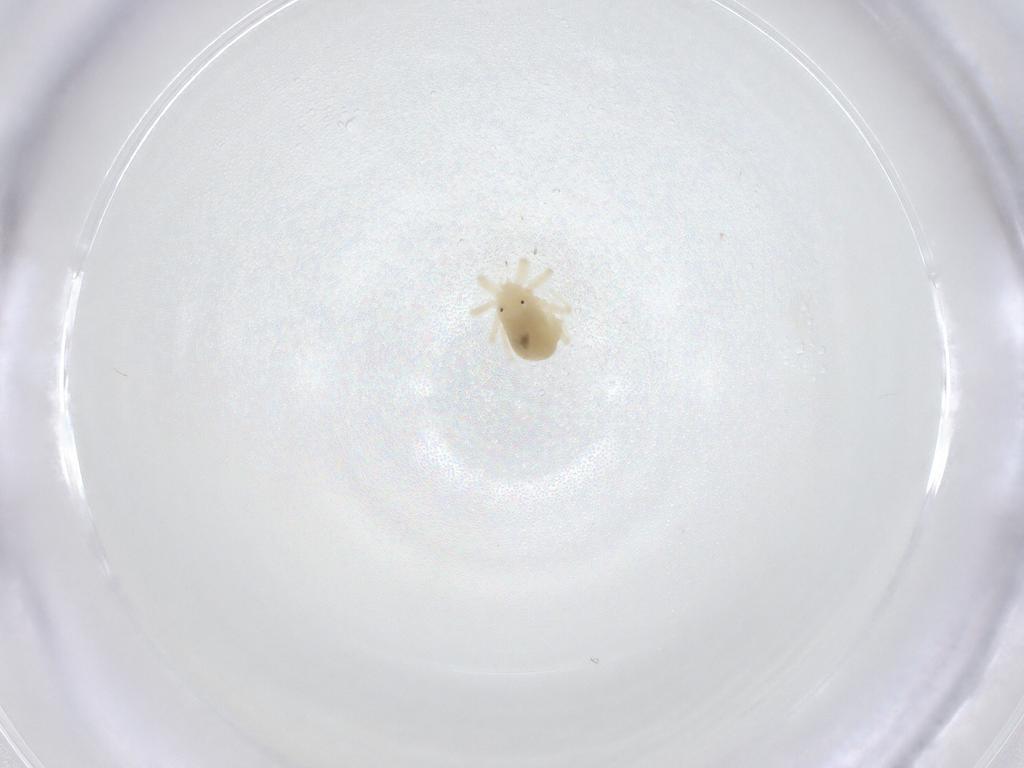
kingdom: Animalia
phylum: Arthropoda
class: Arachnida
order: Trombidiformes
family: Anystidae
